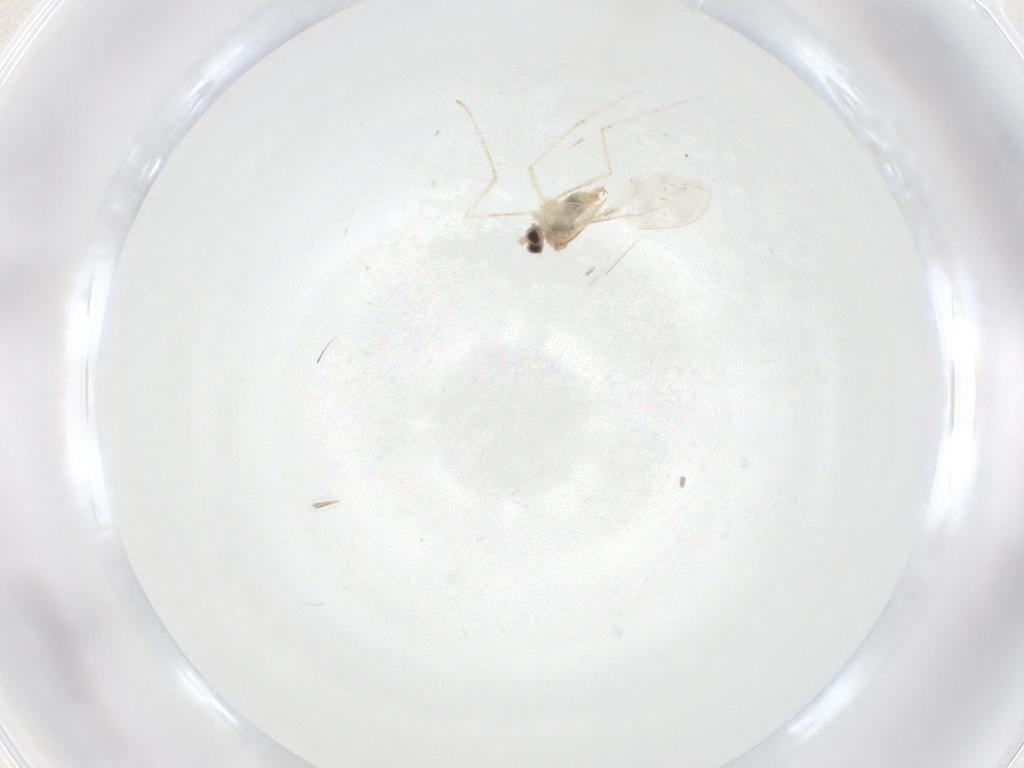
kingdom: Animalia
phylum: Arthropoda
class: Insecta
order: Diptera
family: Cecidomyiidae
